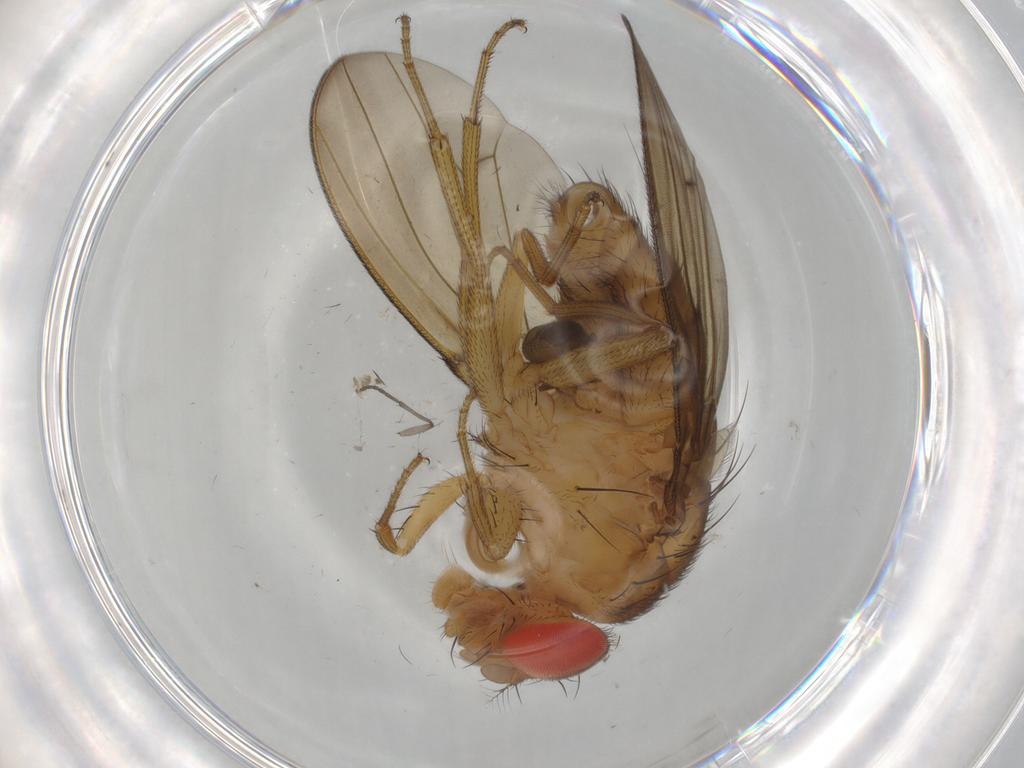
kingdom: Animalia
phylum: Arthropoda
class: Insecta
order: Diptera
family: Drosophilidae
